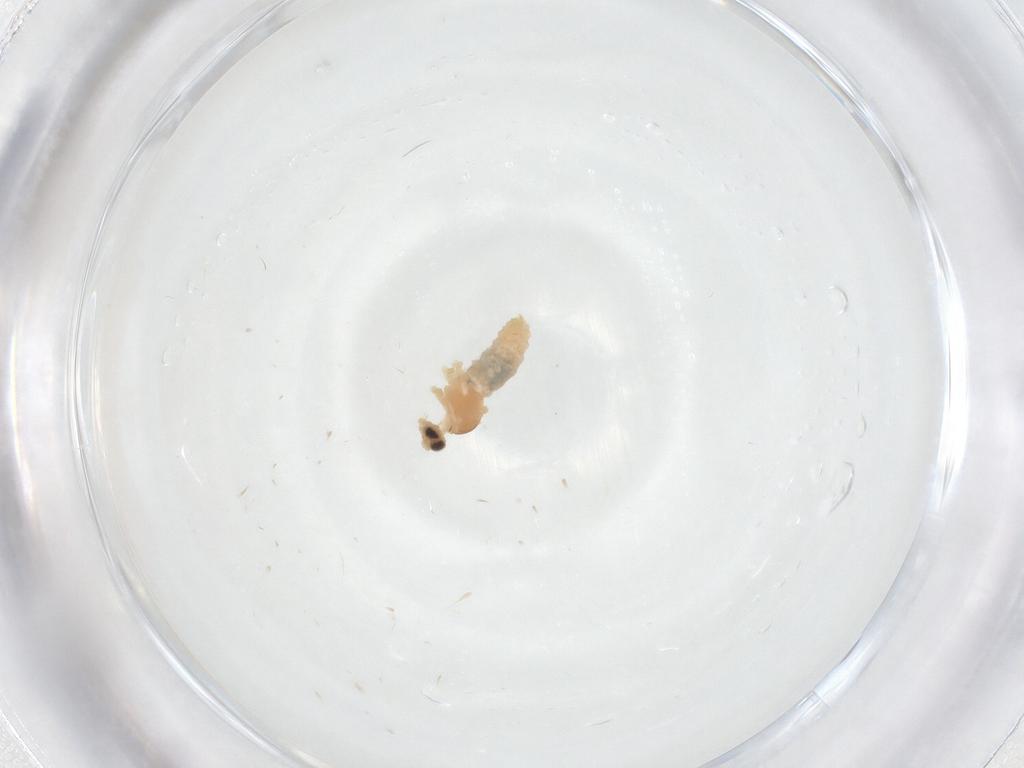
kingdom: Animalia
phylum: Arthropoda
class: Insecta
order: Diptera
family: Cecidomyiidae
